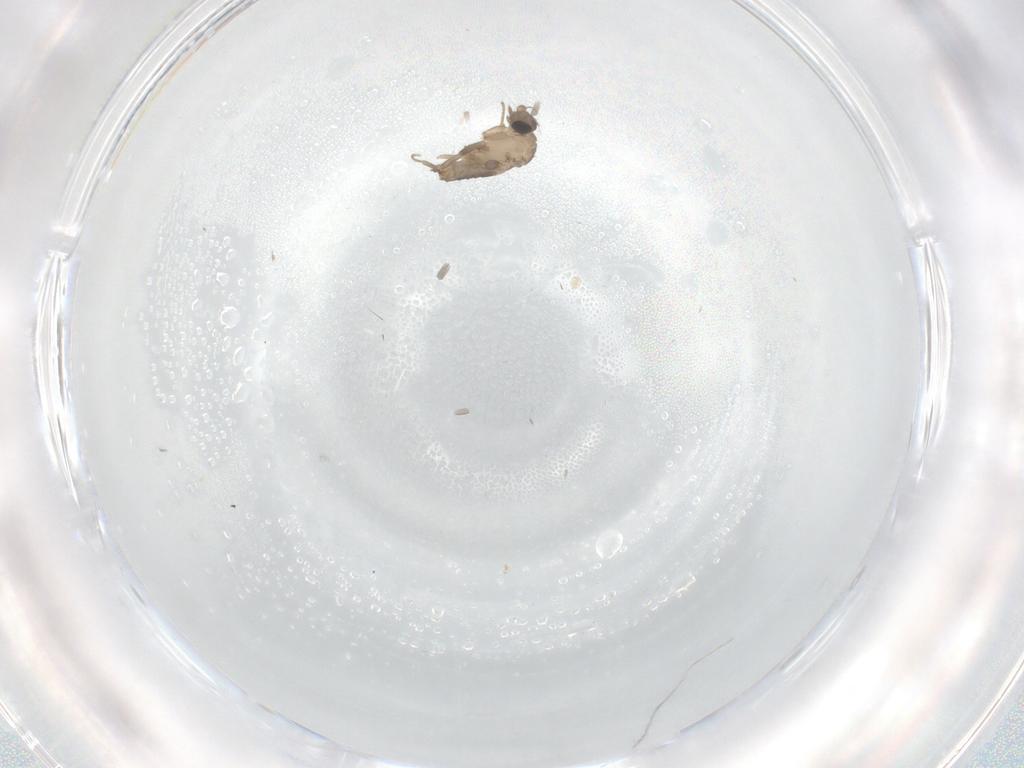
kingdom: Animalia
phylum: Arthropoda
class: Insecta
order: Diptera
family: Phoridae
